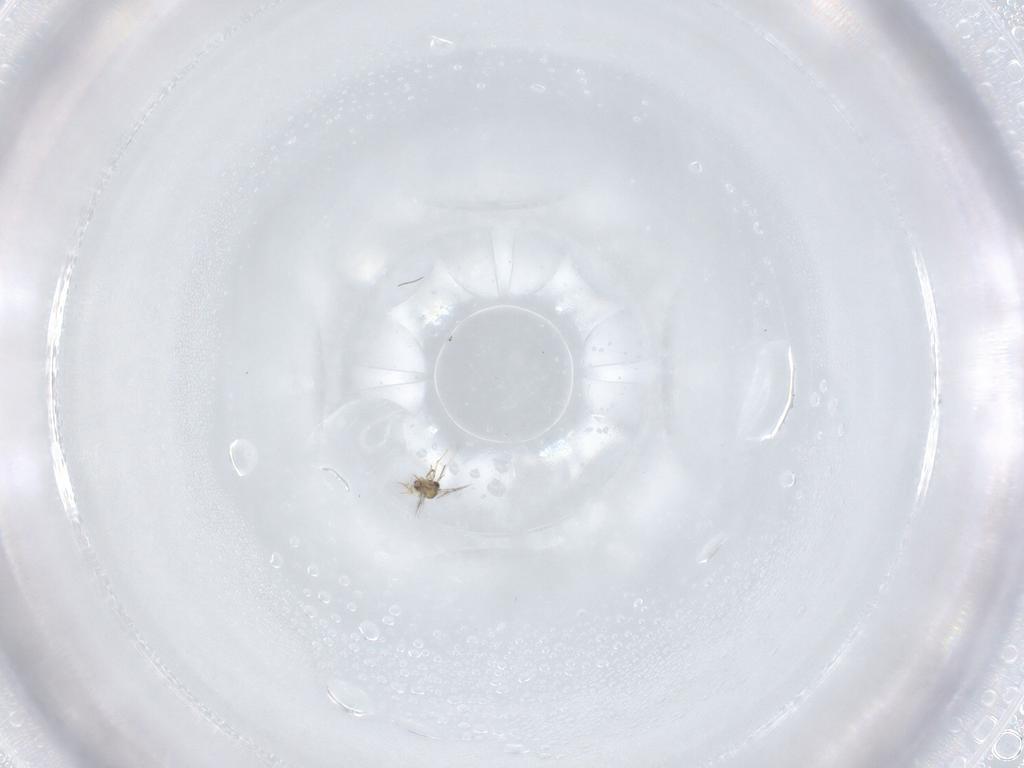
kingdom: Animalia
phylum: Arthropoda
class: Insecta
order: Hymenoptera
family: Mymaridae
